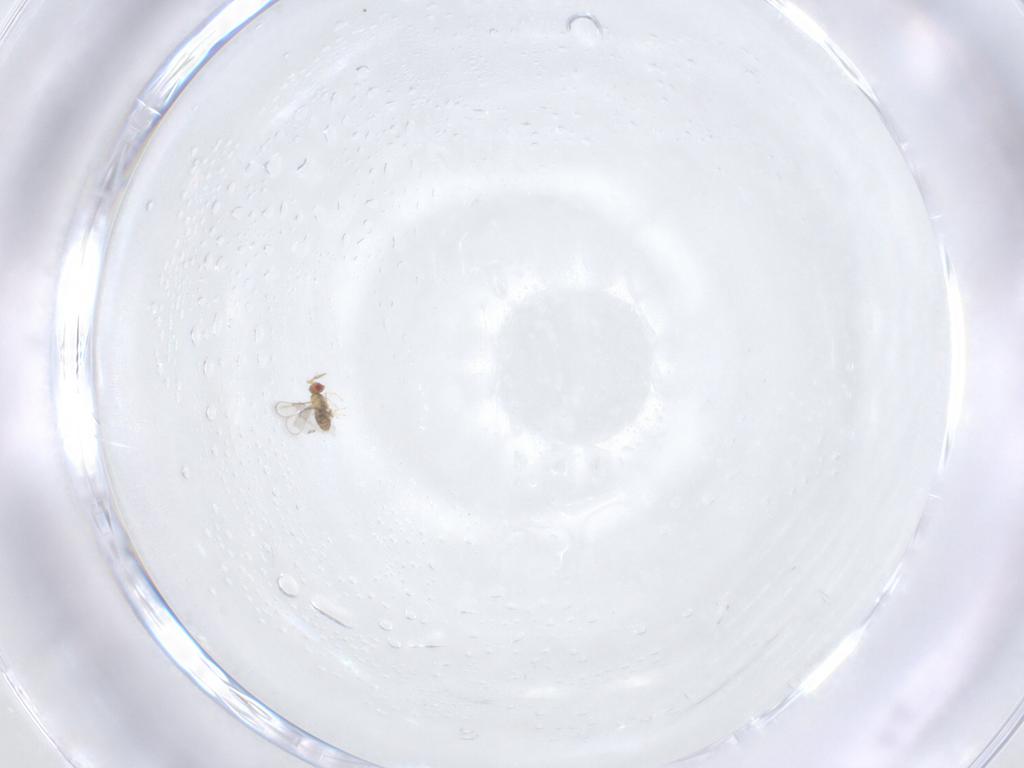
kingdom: Animalia
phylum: Arthropoda
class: Insecta
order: Hymenoptera
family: Trichogrammatidae
